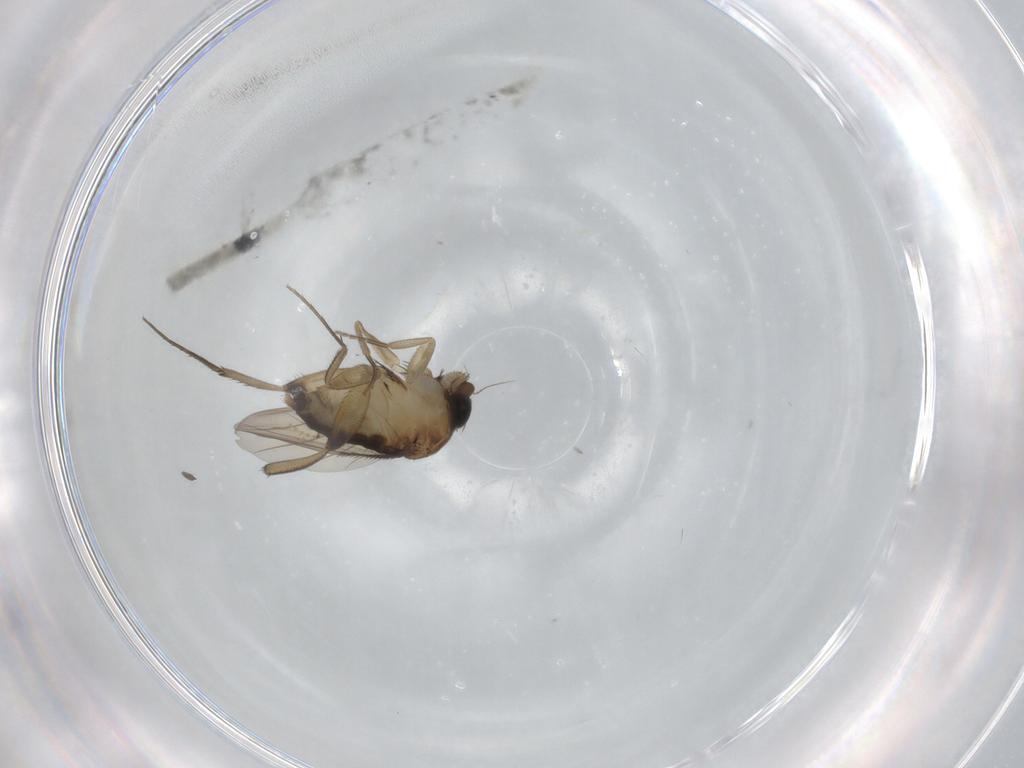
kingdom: Animalia
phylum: Arthropoda
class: Insecta
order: Diptera
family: Phoridae
